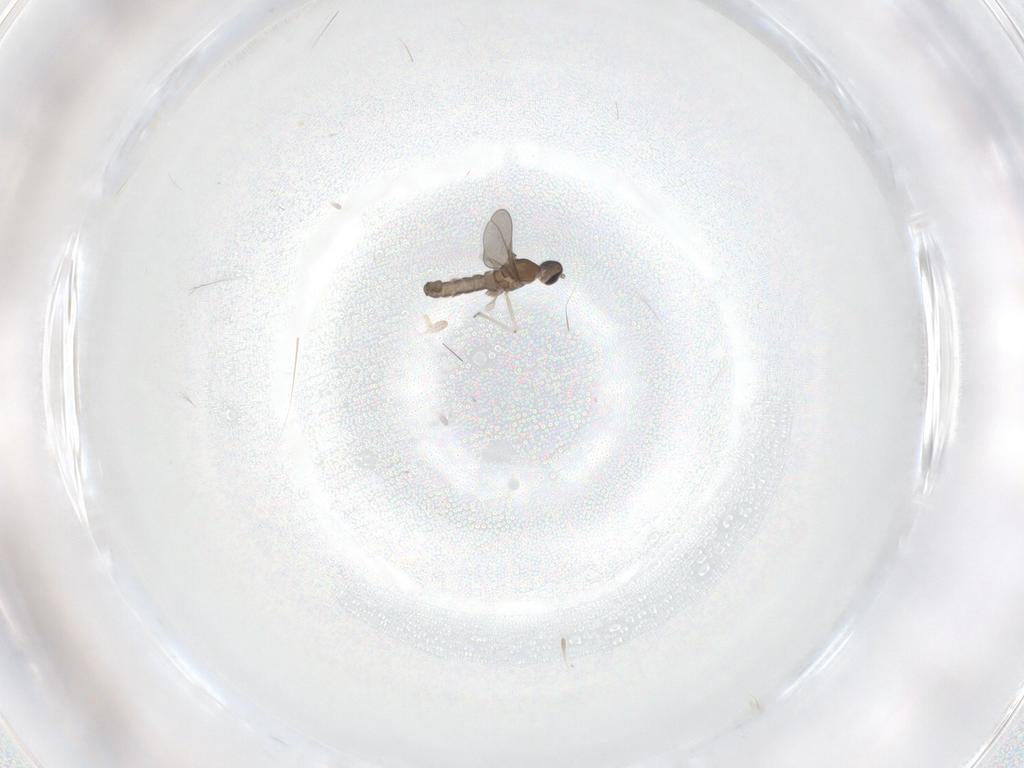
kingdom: Animalia
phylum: Arthropoda
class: Insecta
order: Diptera
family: Cecidomyiidae
